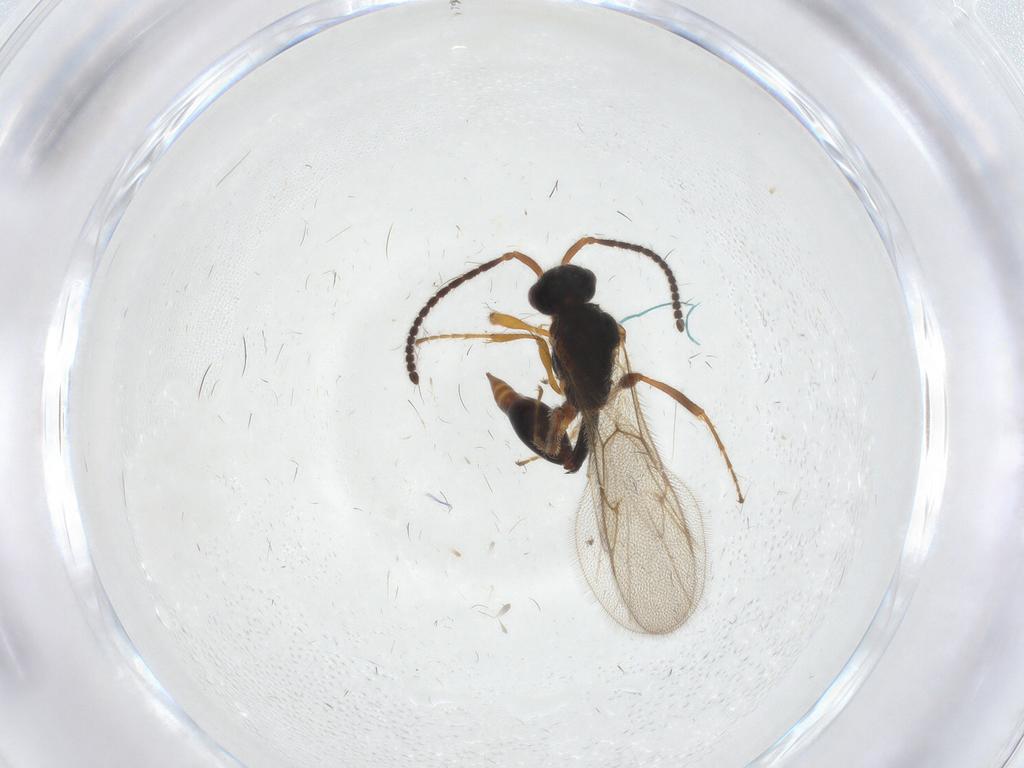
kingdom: Animalia
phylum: Arthropoda
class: Insecta
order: Hymenoptera
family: Diapriidae
